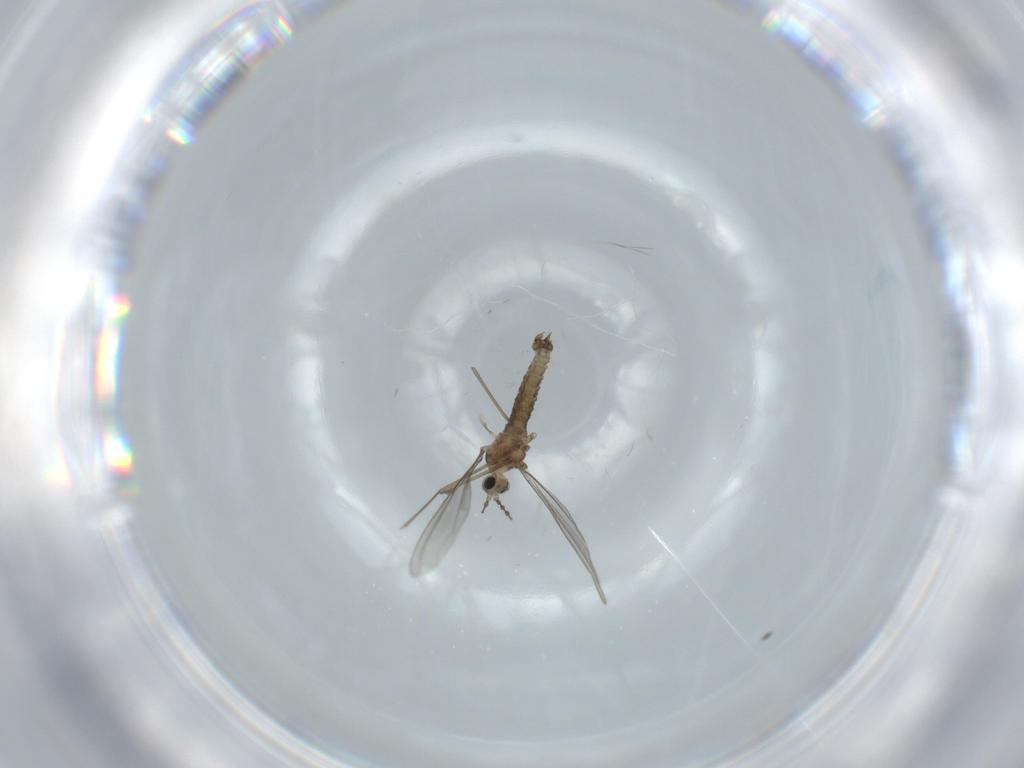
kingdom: Animalia
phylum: Arthropoda
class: Insecta
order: Diptera
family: Cecidomyiidae
